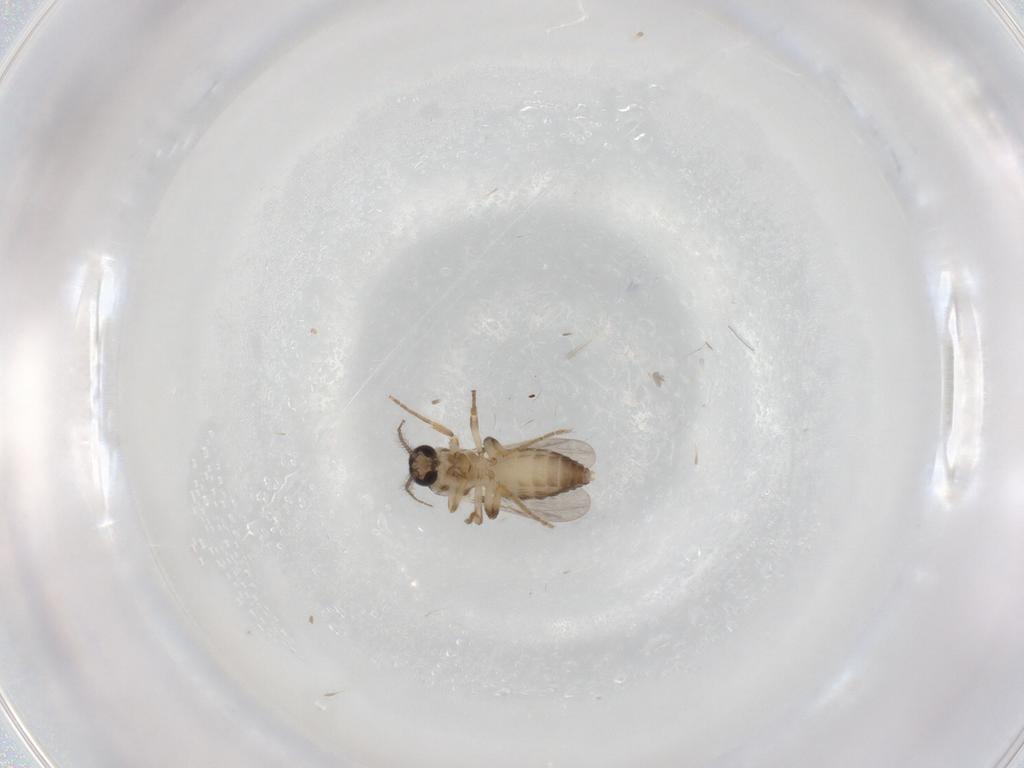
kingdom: Animalia
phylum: Arthropoda
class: Insecta
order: Diptera
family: Ceratopogonidae
